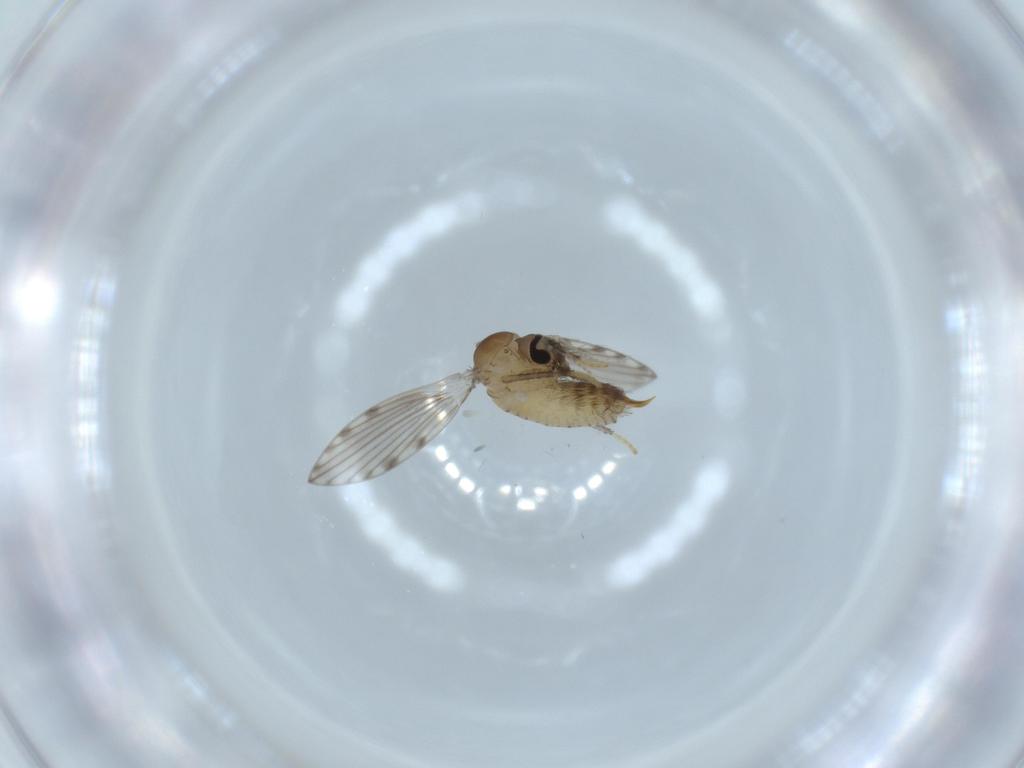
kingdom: Animalia
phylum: Arthropoda
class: Insecta
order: Diptera
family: Psychodidae
